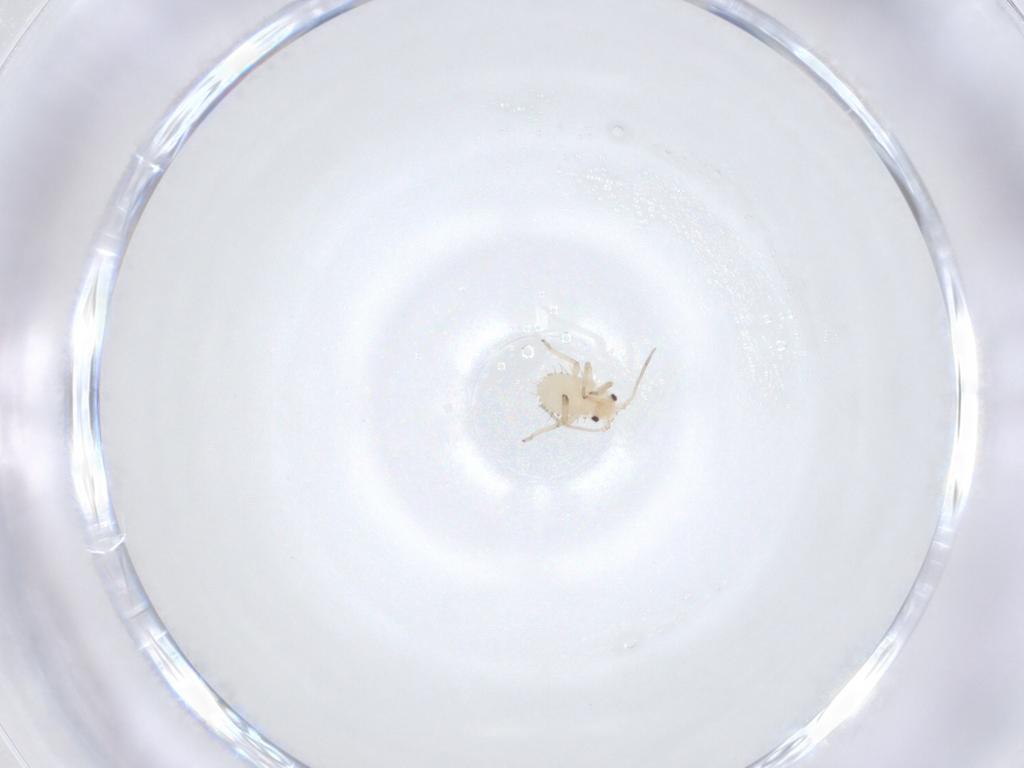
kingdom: Animalia
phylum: Arthropoda
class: Insecta
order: Hemiptera
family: Aphididae
